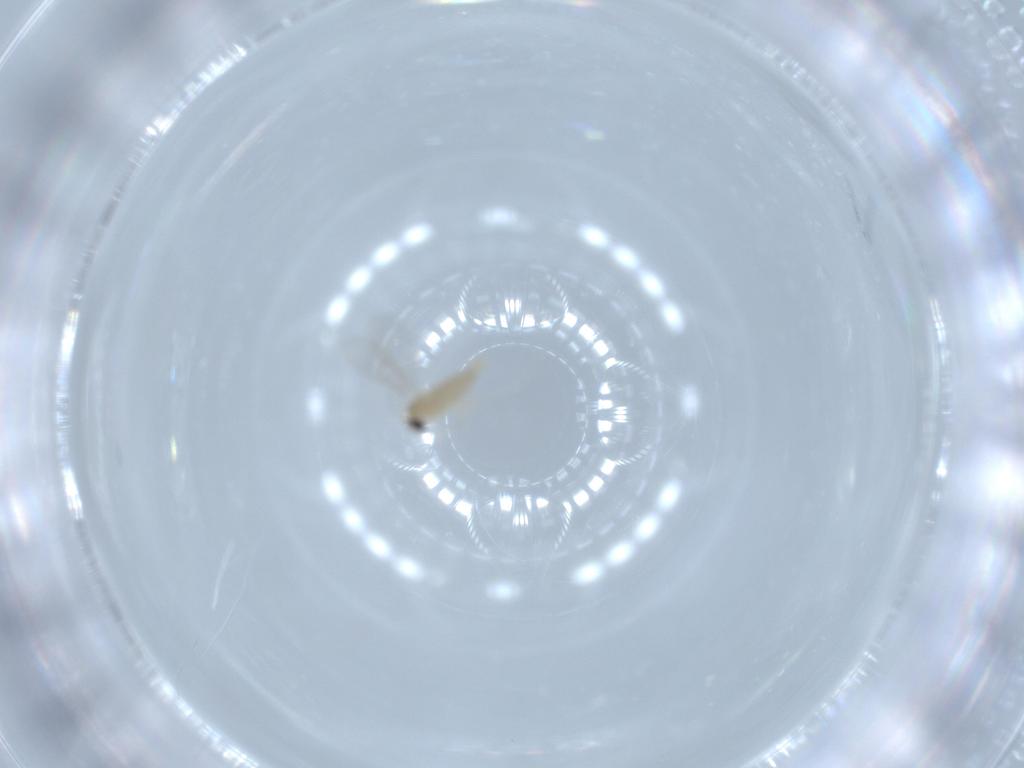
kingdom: Animalia
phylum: Arthropoda
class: Insecta
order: Diptera
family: Cecidomyiidae
